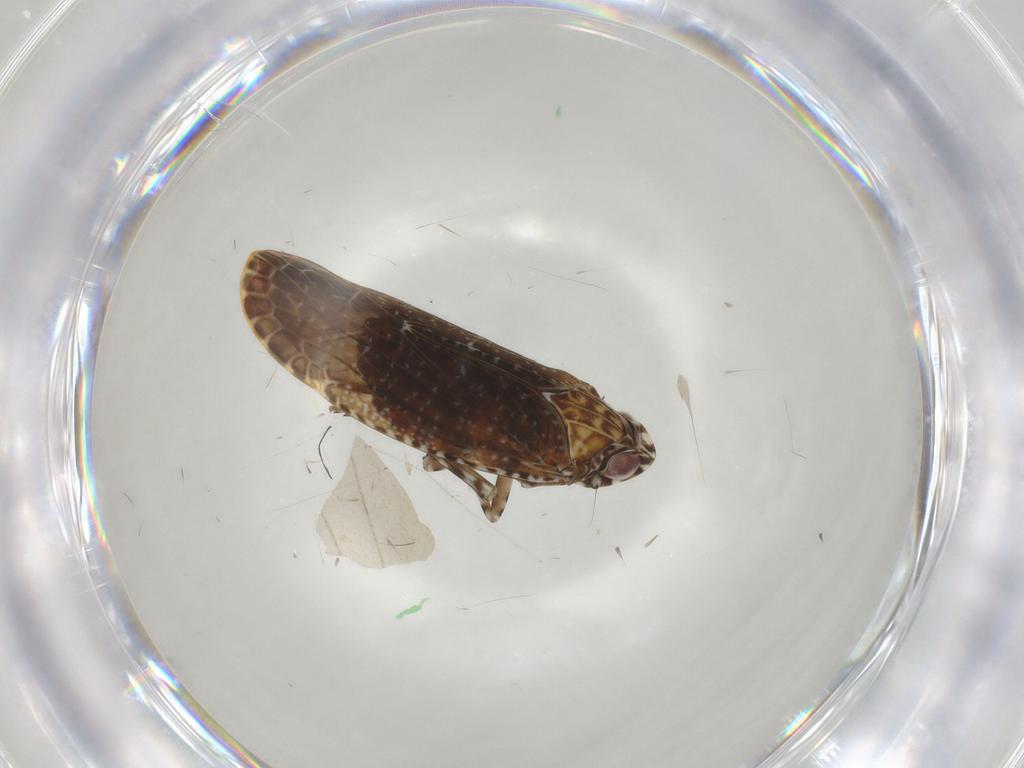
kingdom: Animalia
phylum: Arthropoda
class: Insecta
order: Hemiptera
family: Achilidae
